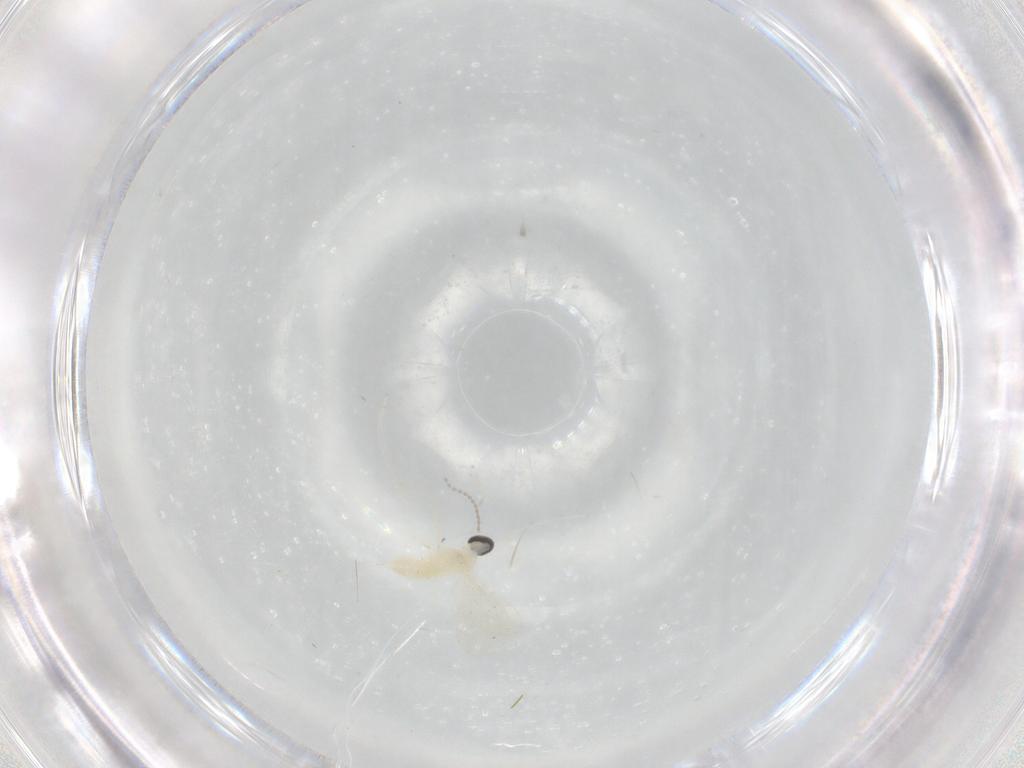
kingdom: Animalia
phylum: Arthropoda
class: Insecta
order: Diptera
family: Cecidomyiidae
